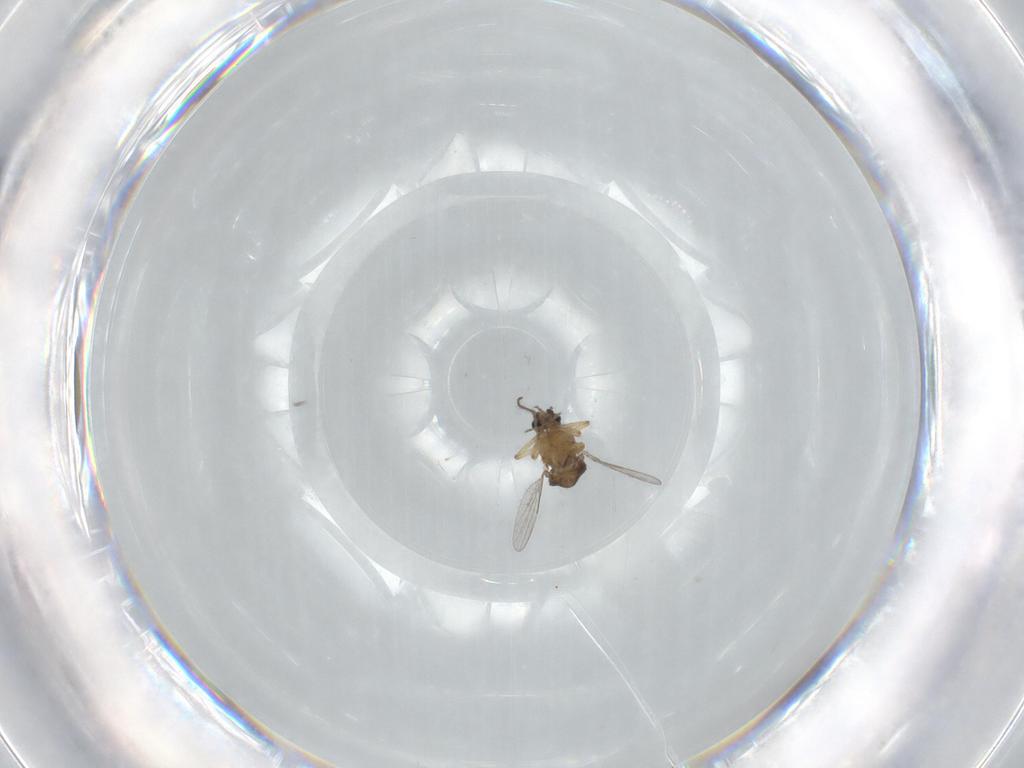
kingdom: Animalia
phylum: Arthropoda
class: Insecta
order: Diptera
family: Ceratopogonidae
